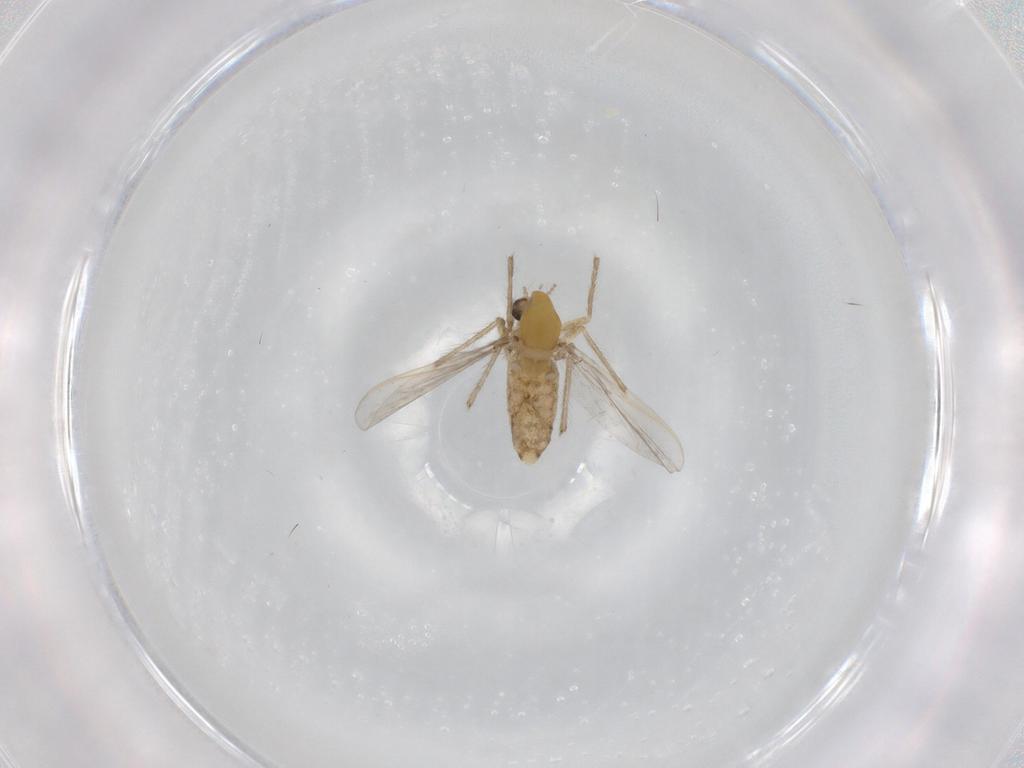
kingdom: Animalia
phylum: Arthropoda
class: Insecta
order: Diptera
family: Chironomidae
